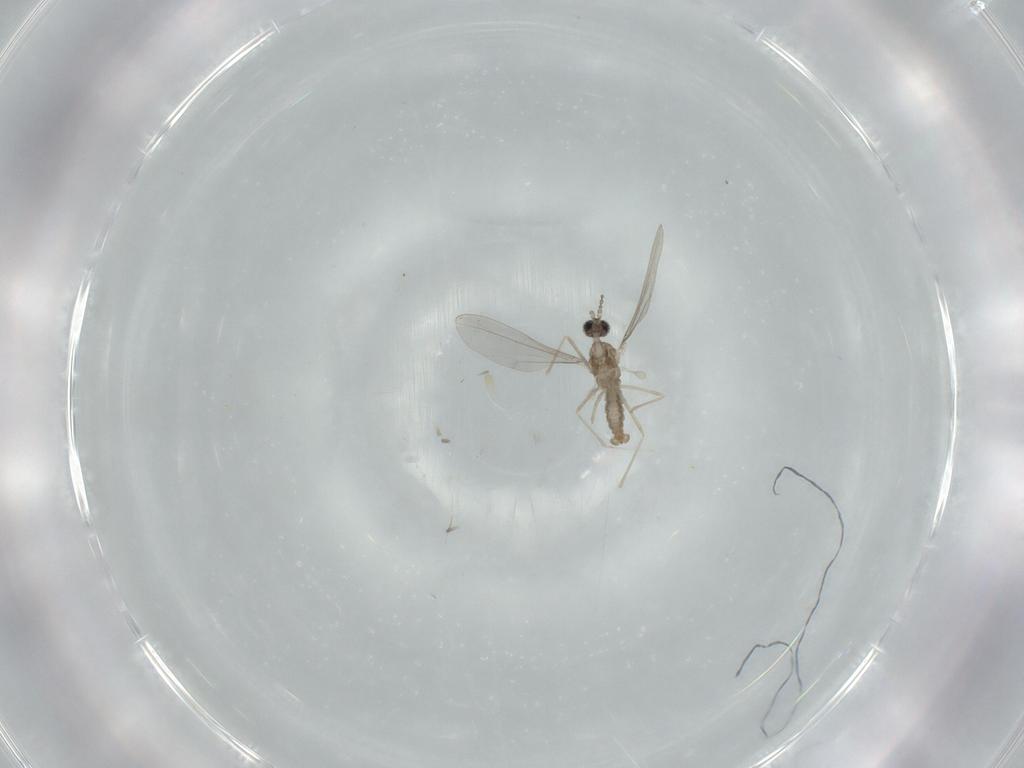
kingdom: Animalia
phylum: Arthropoda
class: Insecta
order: Diptera
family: Cecidomyiidae
